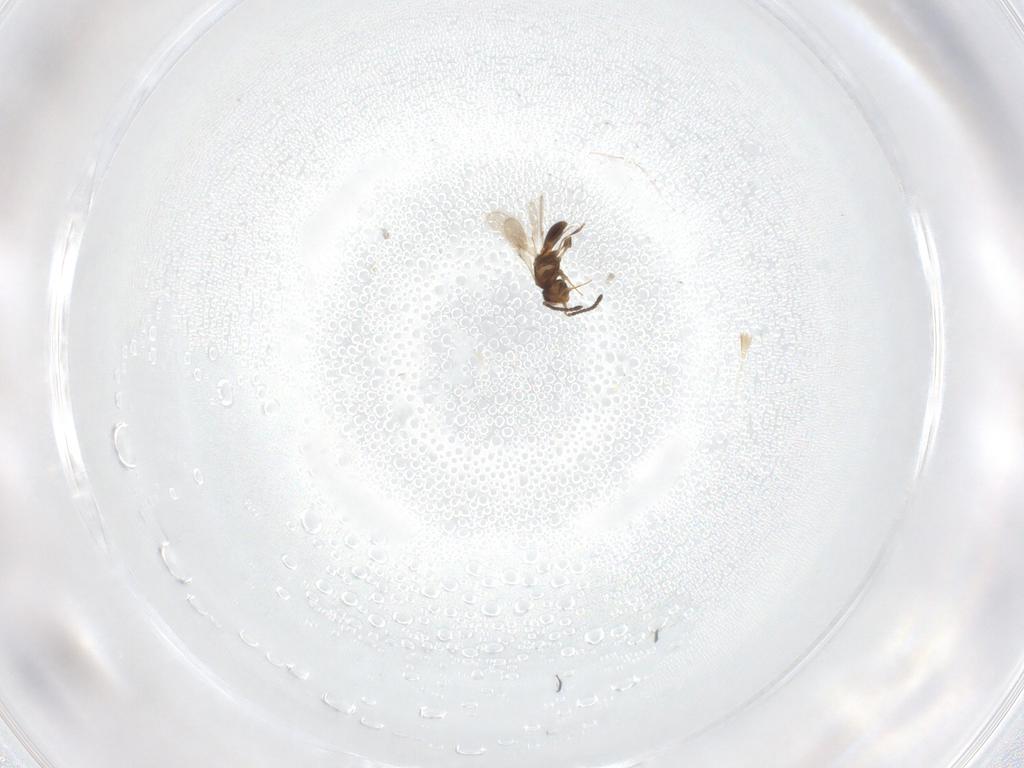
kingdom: Animalia
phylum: Arthropoda
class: Insecta
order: Hymenoptera
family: Scelionidae
